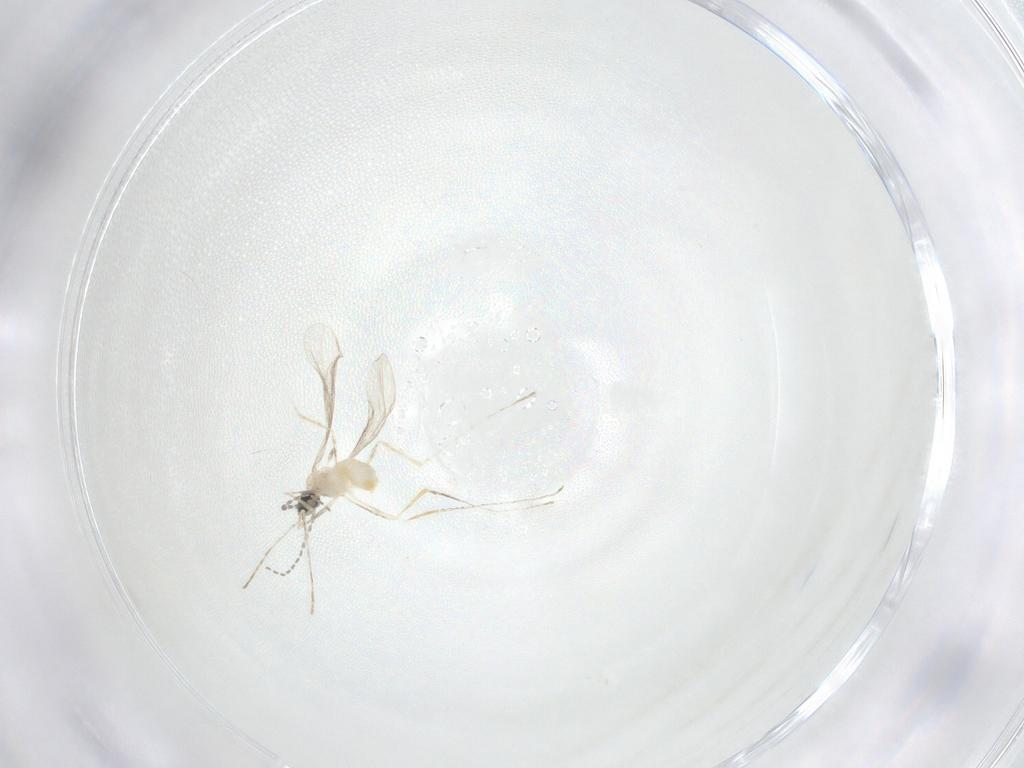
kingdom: Animalia
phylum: Arthropoda
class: Insecta
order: Diptera
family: Cecidomyiidae
